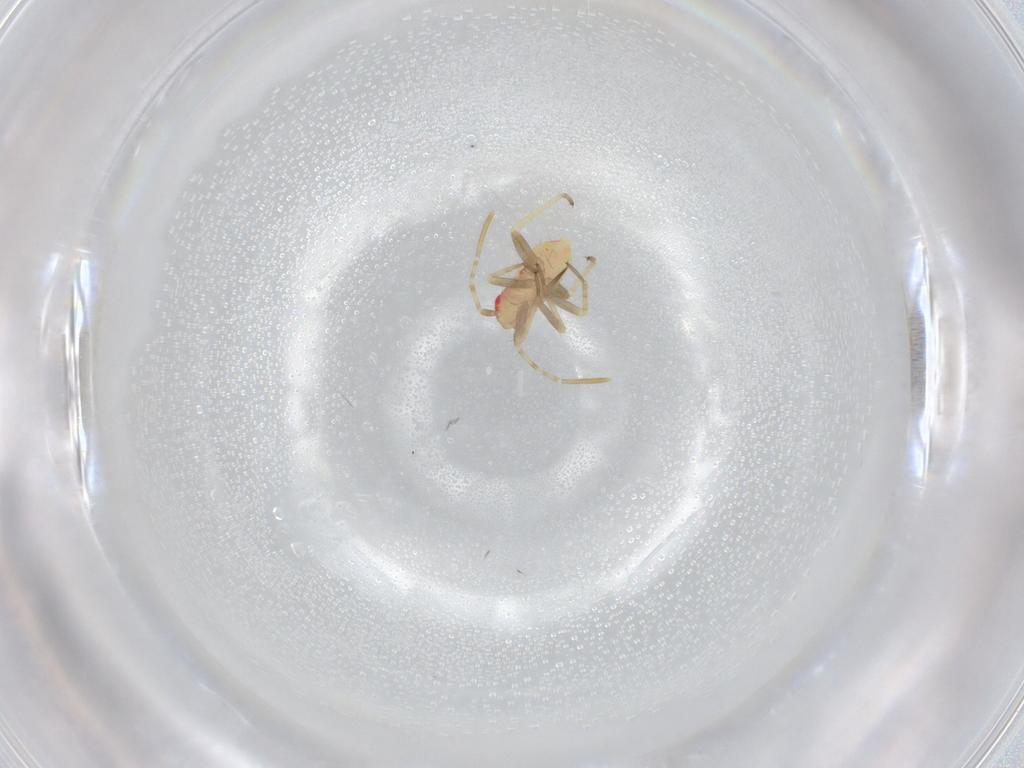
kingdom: Animalia
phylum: Arthropoda
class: Insecta
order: Hemiptera
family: Miridae
